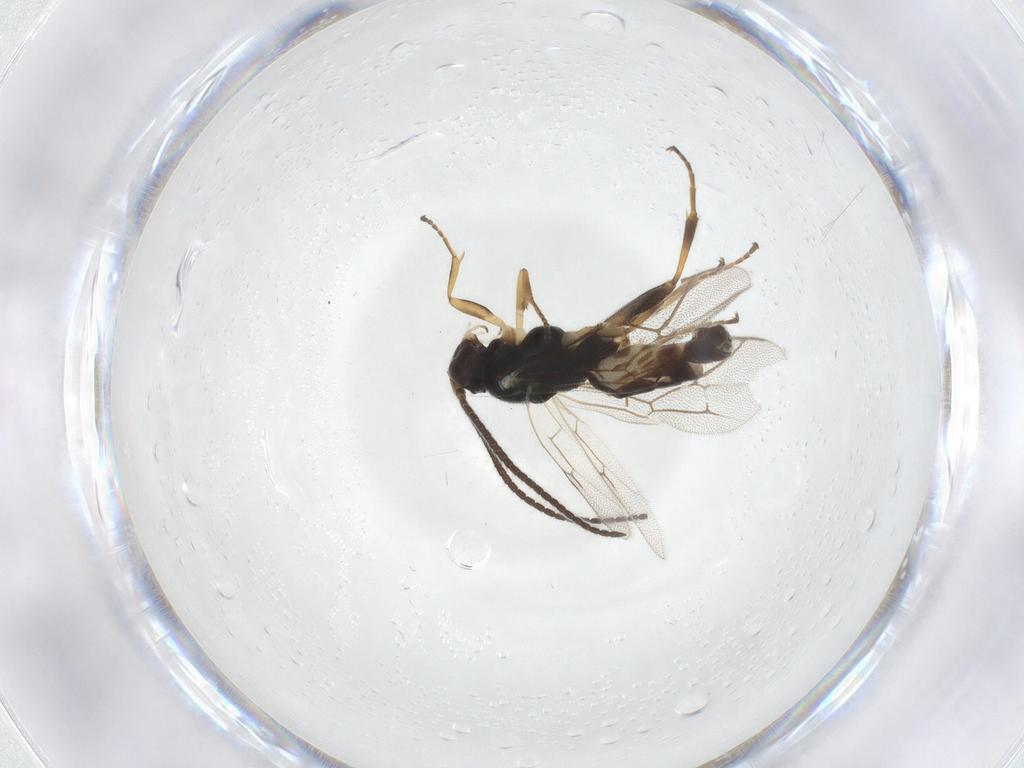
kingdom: Animalia
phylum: Arthropoda
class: Insecta
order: Hymenoptera
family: Ichneumonidae
